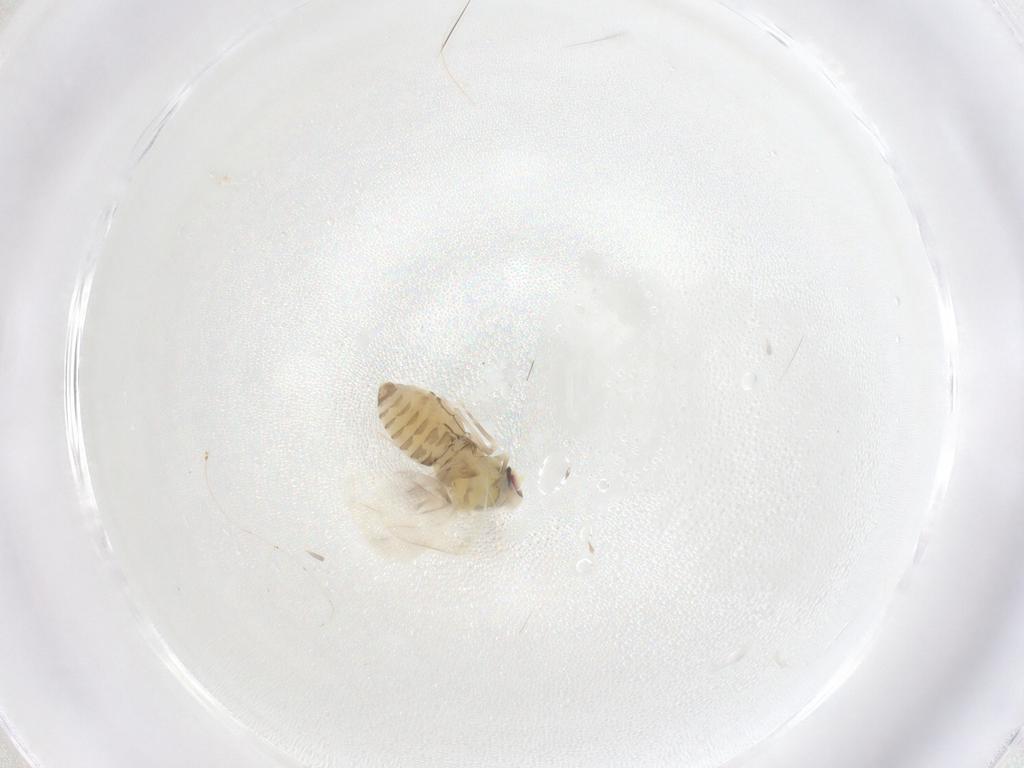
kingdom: Animalia
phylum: Arthropoda
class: Insecta
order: Hemiptera
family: Aleyrodidae
